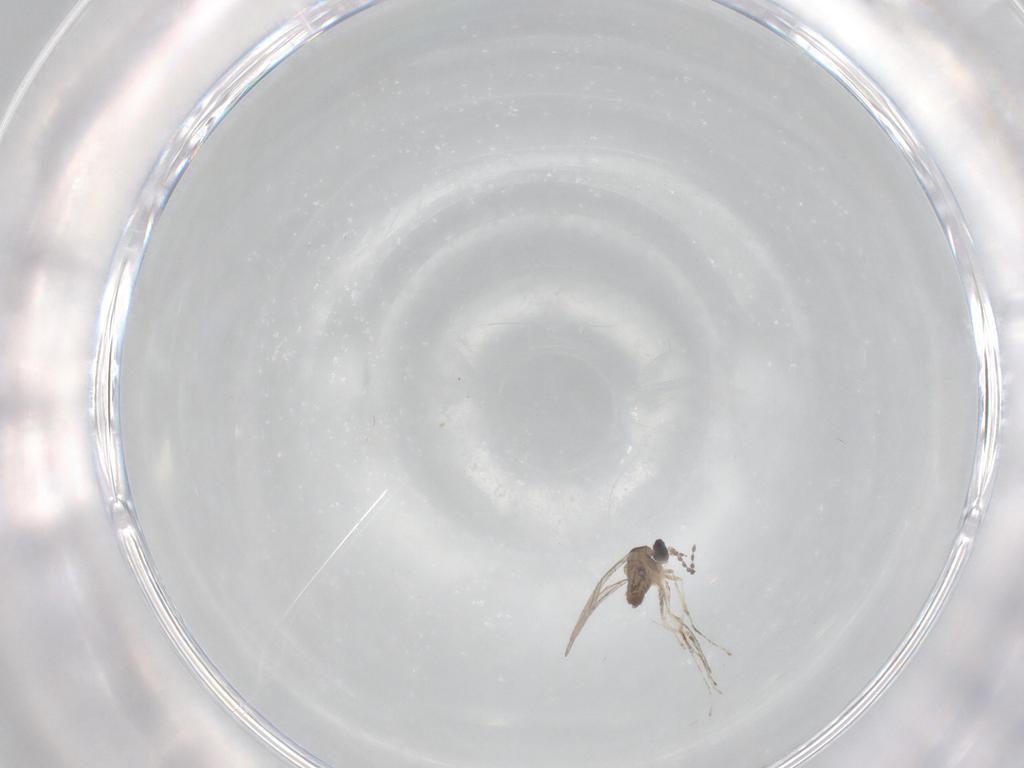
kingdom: Animalia
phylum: Arthropoda
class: Insecta
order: Diptera
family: Cecidomyiidae
